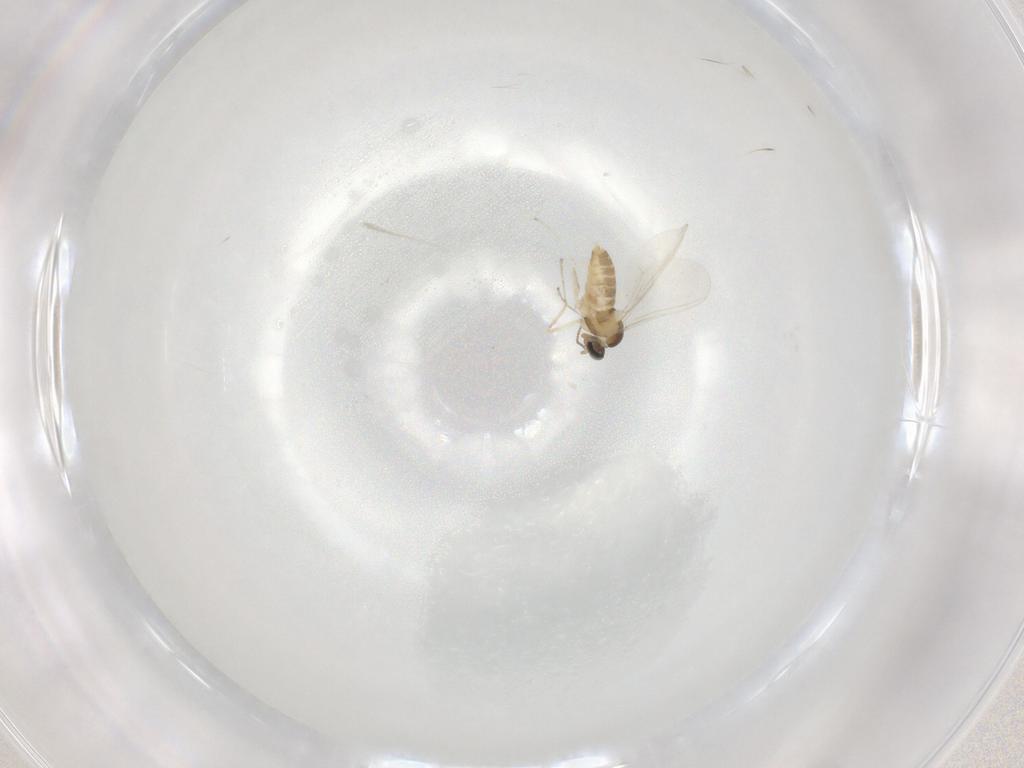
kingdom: Animalia
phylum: Arthropoda
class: Insecta
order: Diptera
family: Cecidomyiidae
